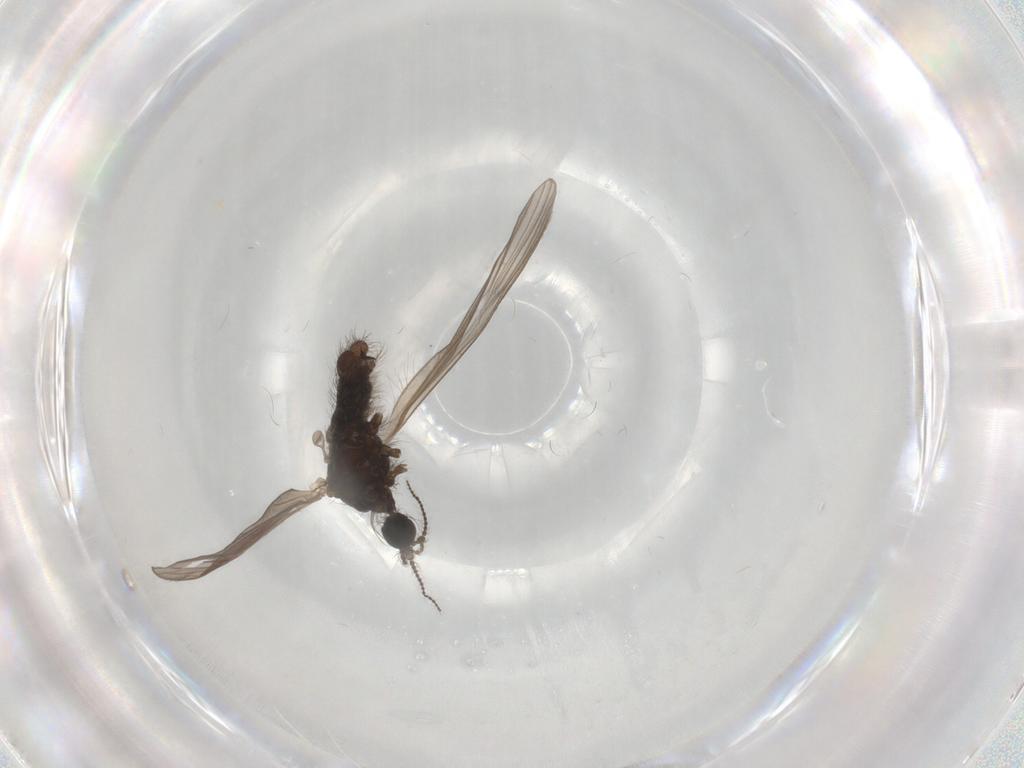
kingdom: Animalia
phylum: Arthropoda
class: Insecta
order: Diptera
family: Limoniidae
